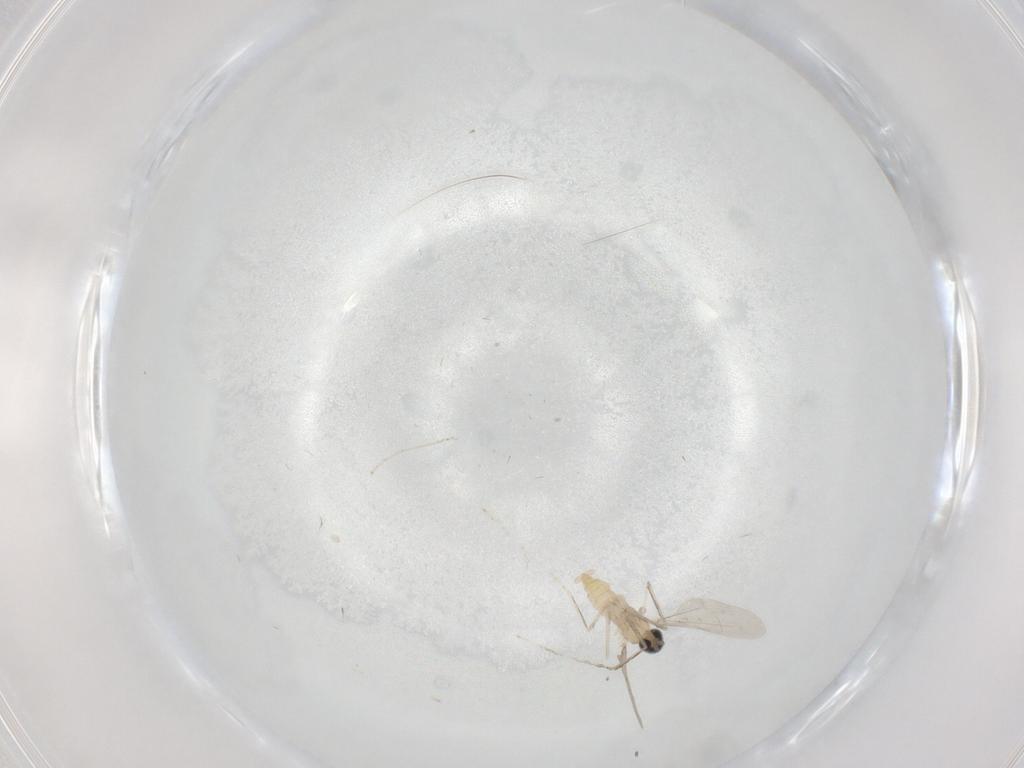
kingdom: Animalia
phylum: Arthropoda
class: Insecta
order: Diptera
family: Cecidomyiidae
